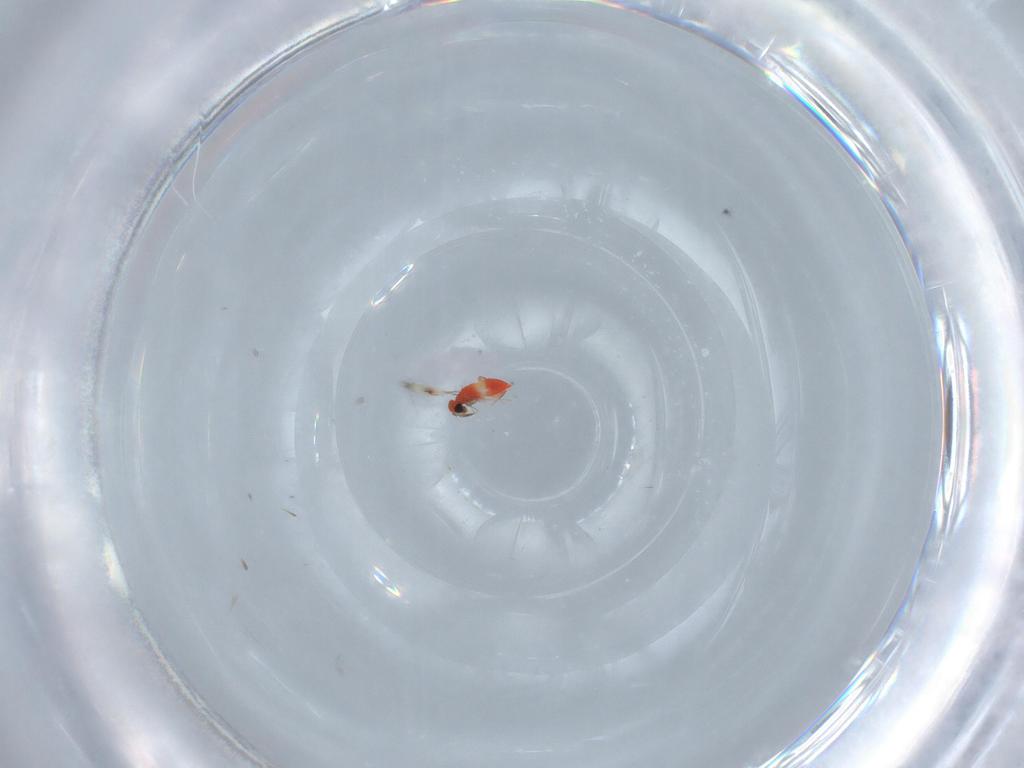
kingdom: Animalia
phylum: Arthropoda
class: Insecta
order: Hymenoptera
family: Trichogrammatidae
